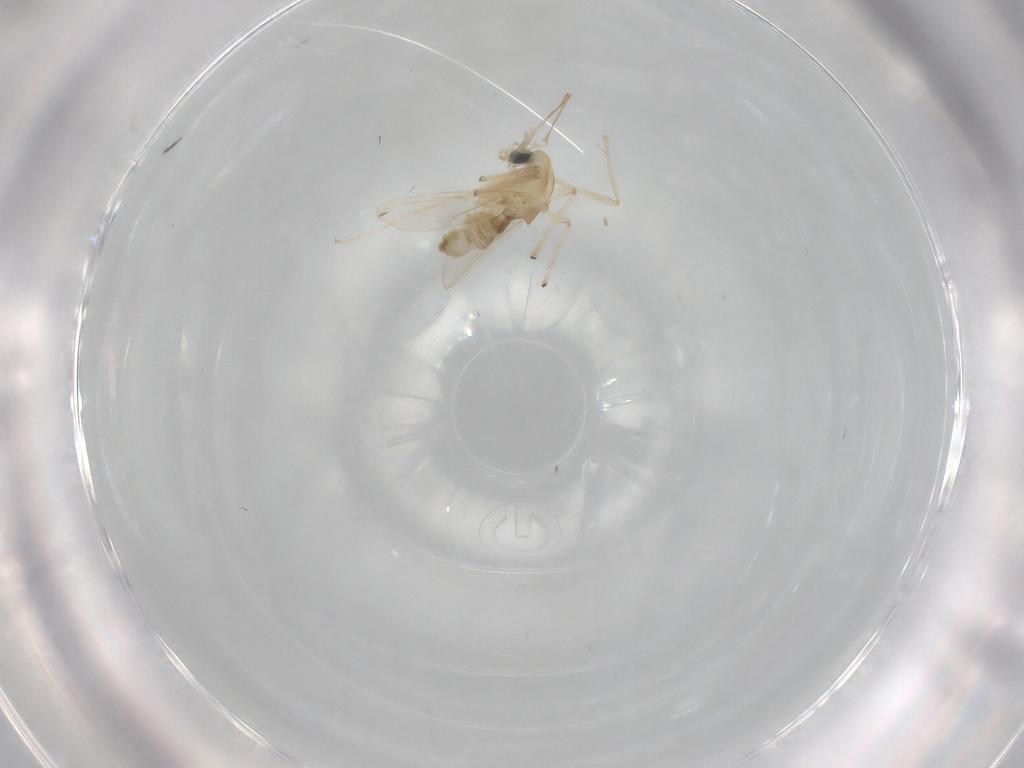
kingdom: Animalia
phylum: Arthropoda
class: Insecta
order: Diptera
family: Chironomidae
